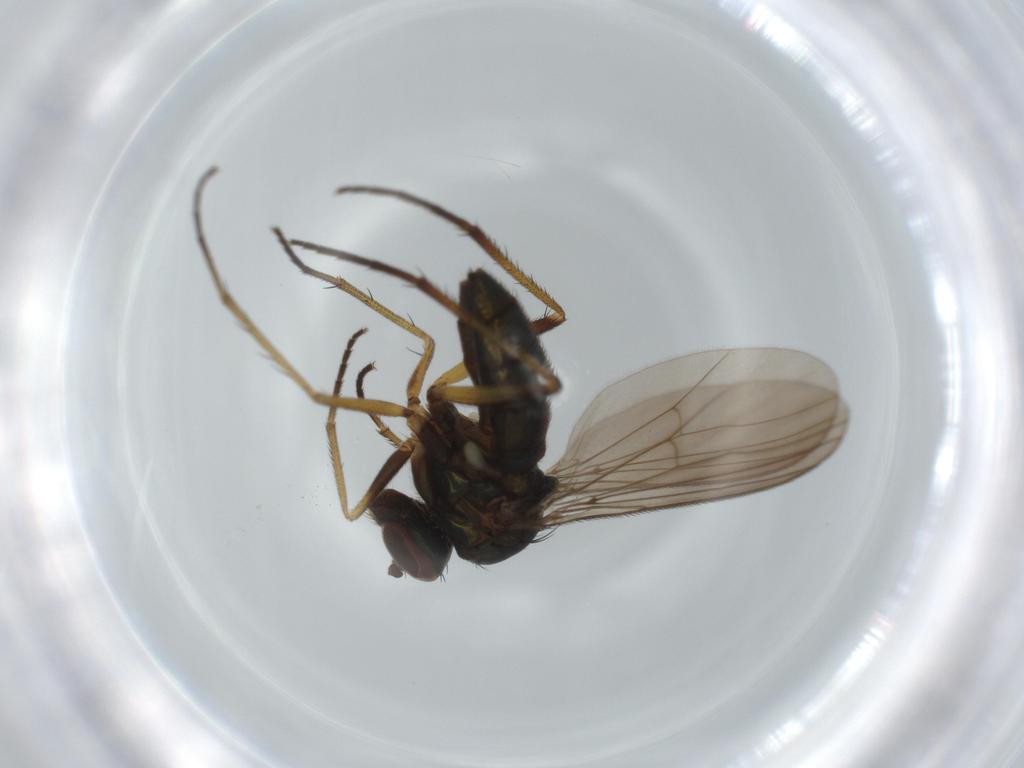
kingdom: Animalia
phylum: Arthropoda
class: Insecta
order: Diptera
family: Dolichopodidae
